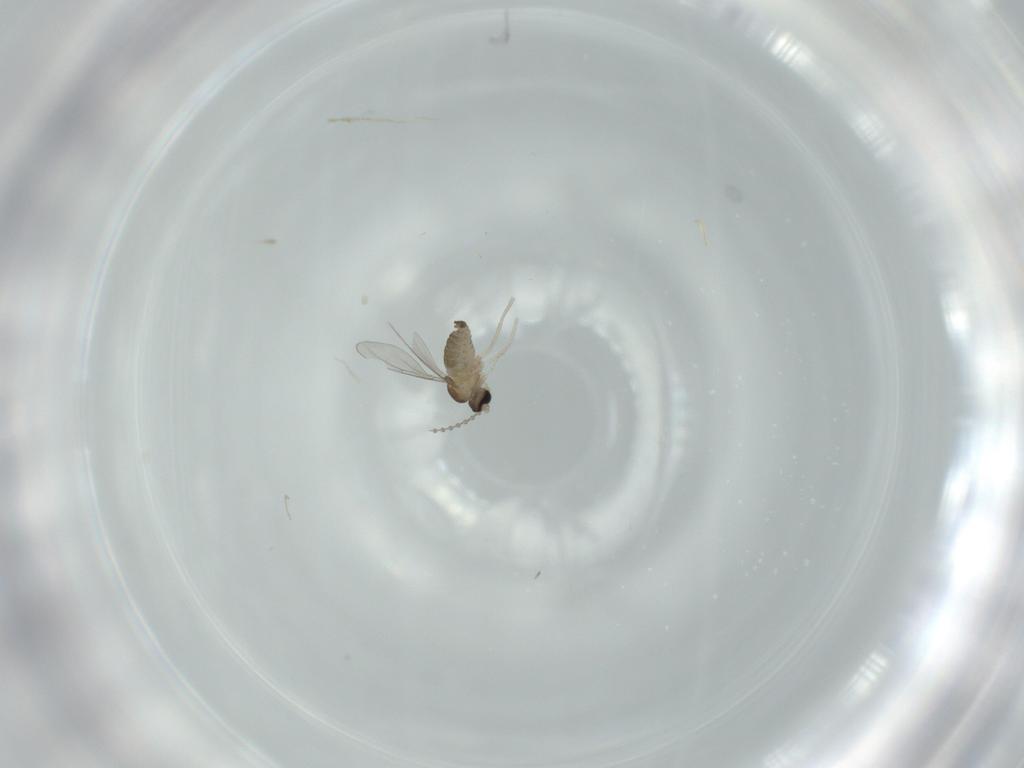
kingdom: Animalia
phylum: Arthropoda
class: Insecta
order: Diptera
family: Cecidomyiidae
